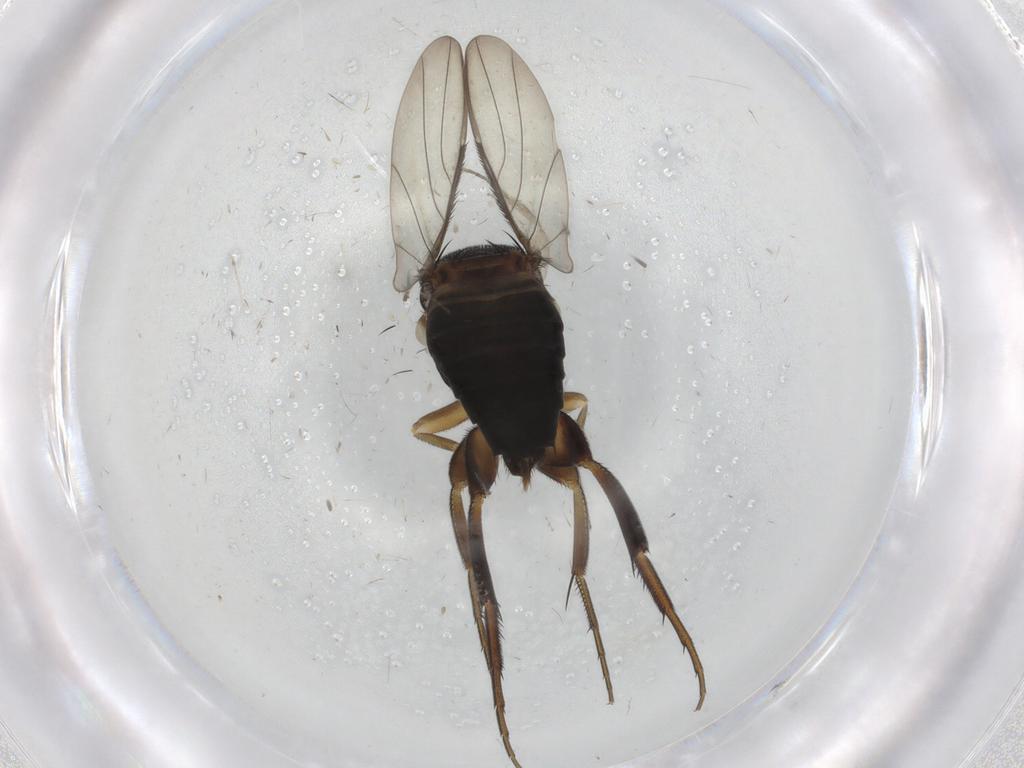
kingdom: Animalia
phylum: Arthropoda
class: Insecta
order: Diptera
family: Phoridae
